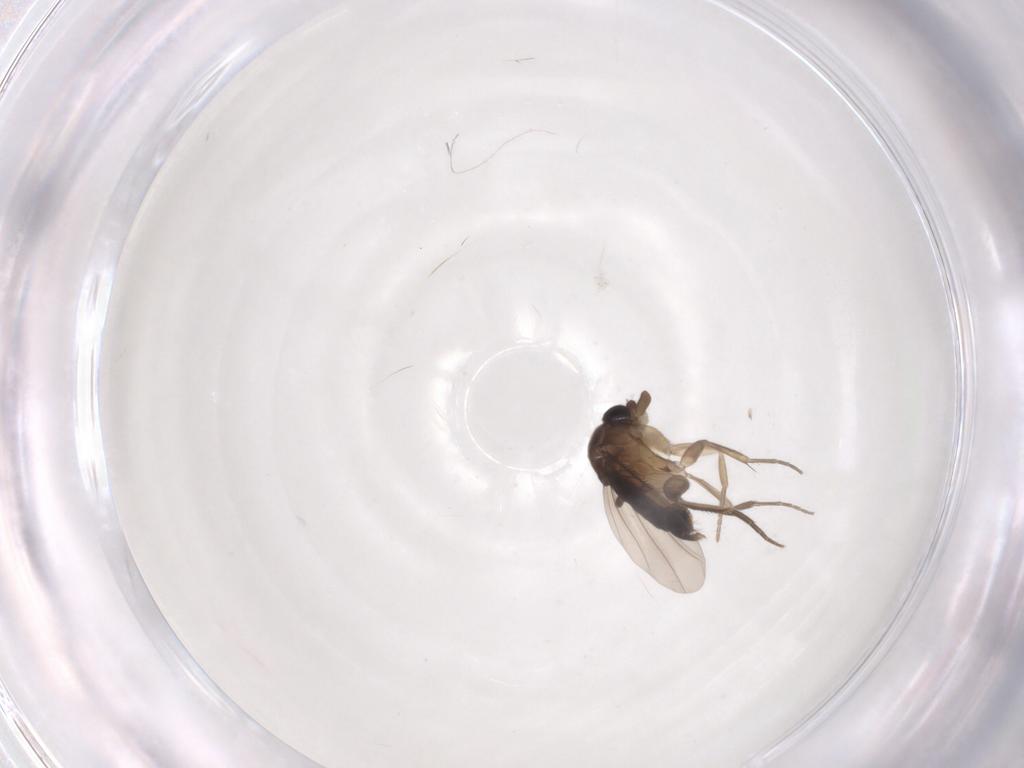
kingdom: Animalia
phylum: Arthropoda
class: Insecta
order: Diptera
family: Phoridae
